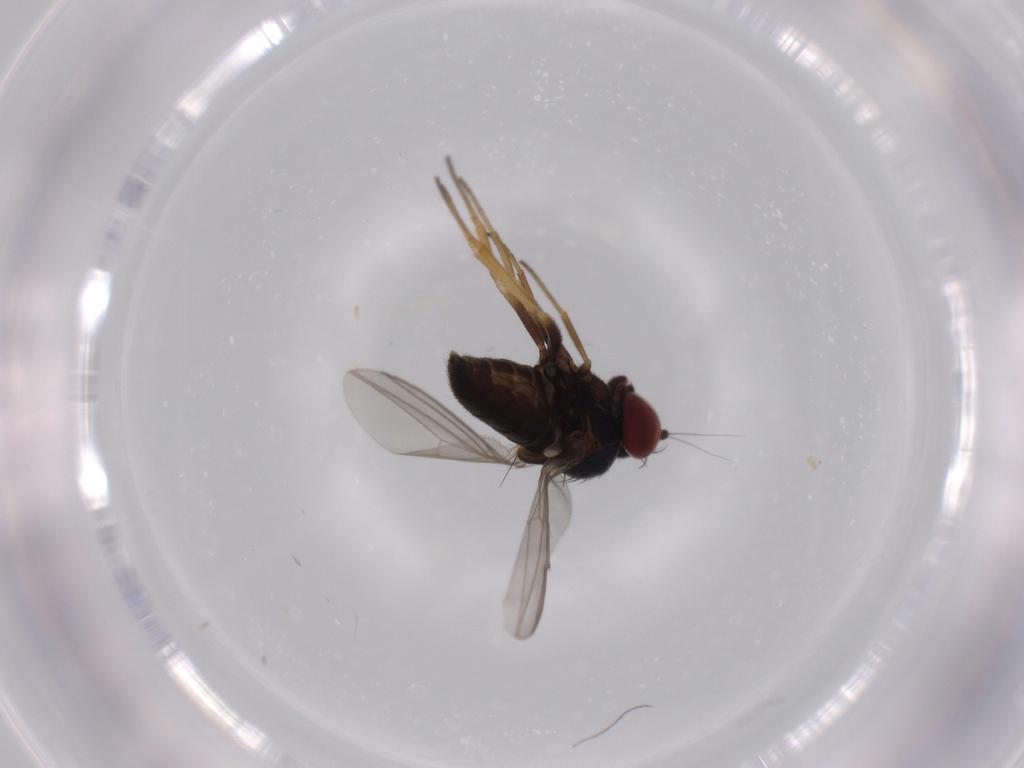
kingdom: Animalia
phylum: Arthropoda
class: Insecta
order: Diptera
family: Dolichopodidae
